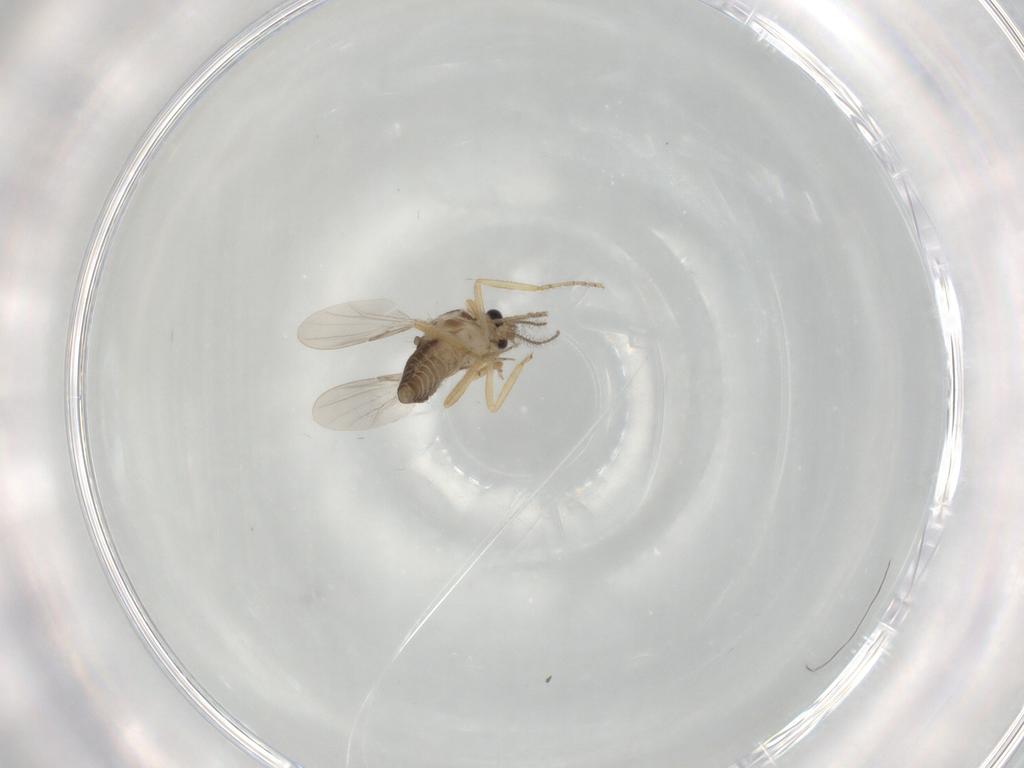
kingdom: Animalia
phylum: Arthropoda
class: Insecta
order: Diptera
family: Ceratopogonidae
